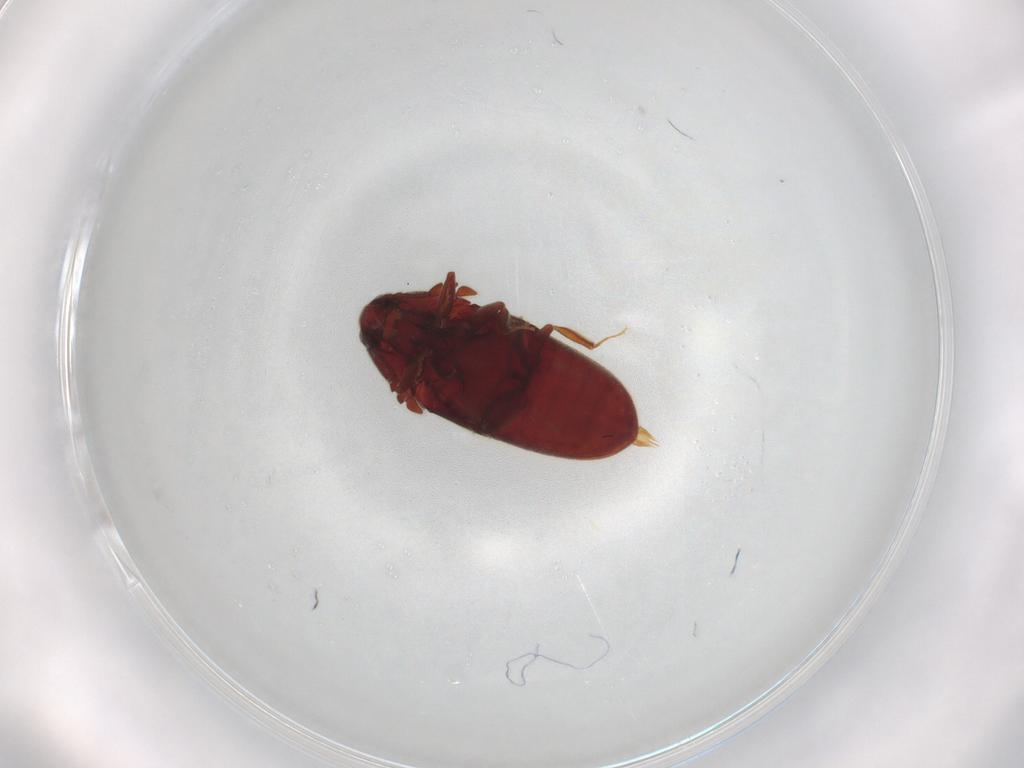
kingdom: Animalia
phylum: Arthropoda
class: Insecta
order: Coleoptera
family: Throscidae
